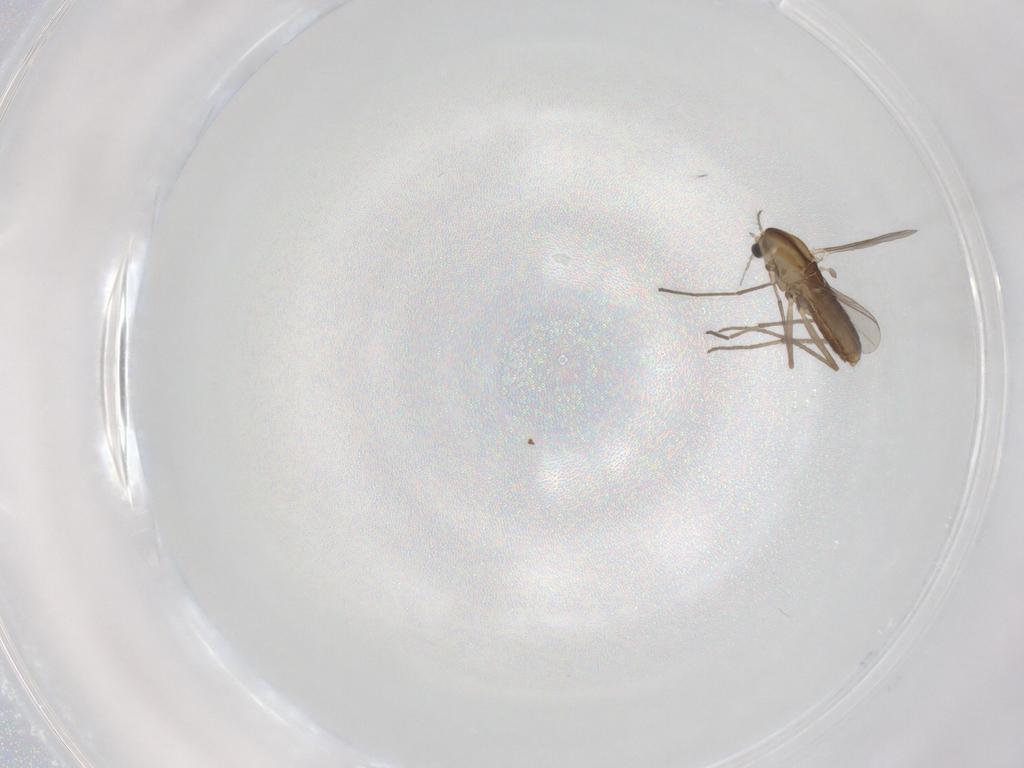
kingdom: Animalia
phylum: Arthropoda
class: Insecta
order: Diptera
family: Chironomidae
